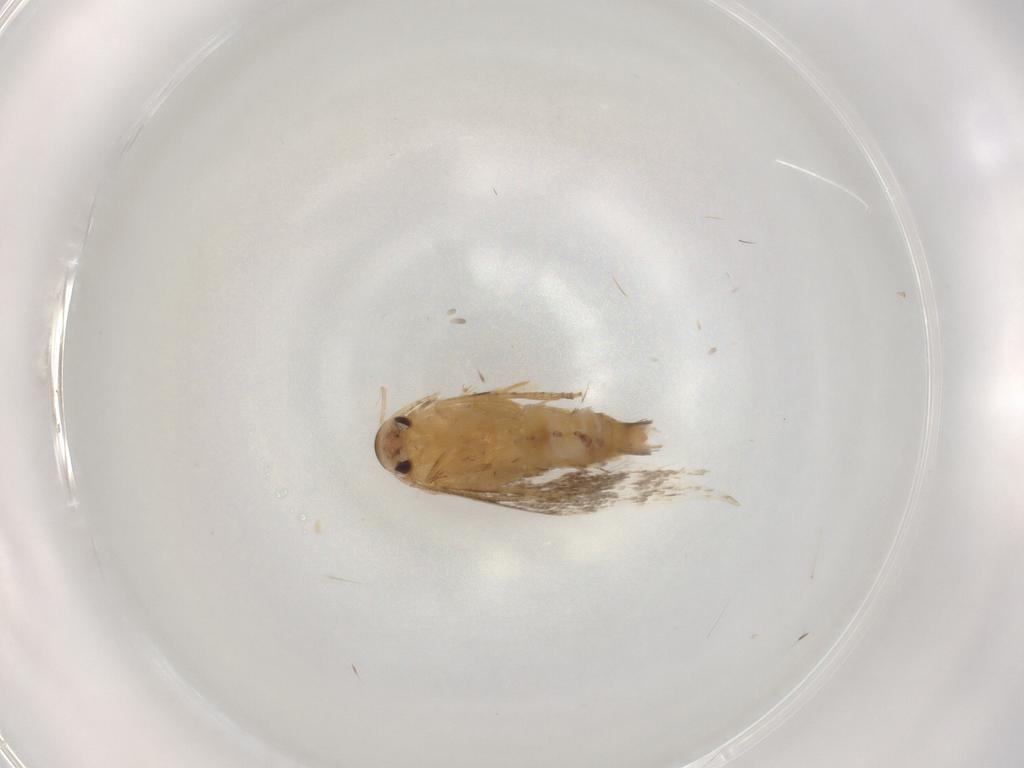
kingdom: Animalia
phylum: Arthropoda
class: Insecta
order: Lepidoptera
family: Elachistidae
